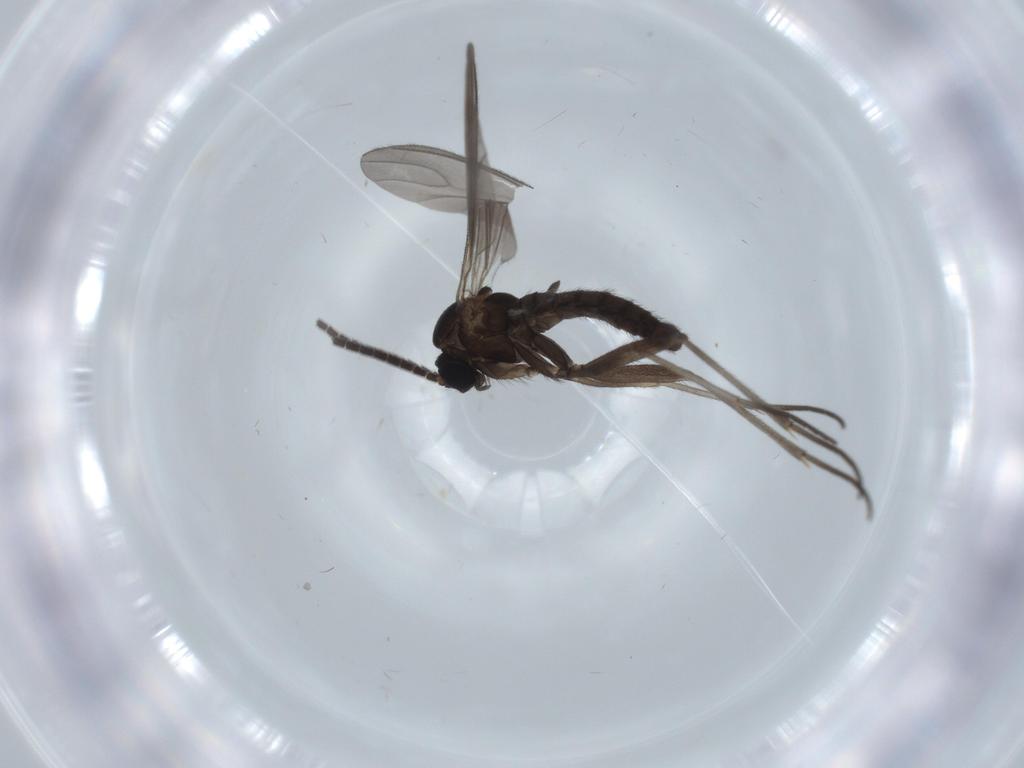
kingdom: Animalia
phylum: Arthropoda
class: Insecta
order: Diptera
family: Sciaridae
